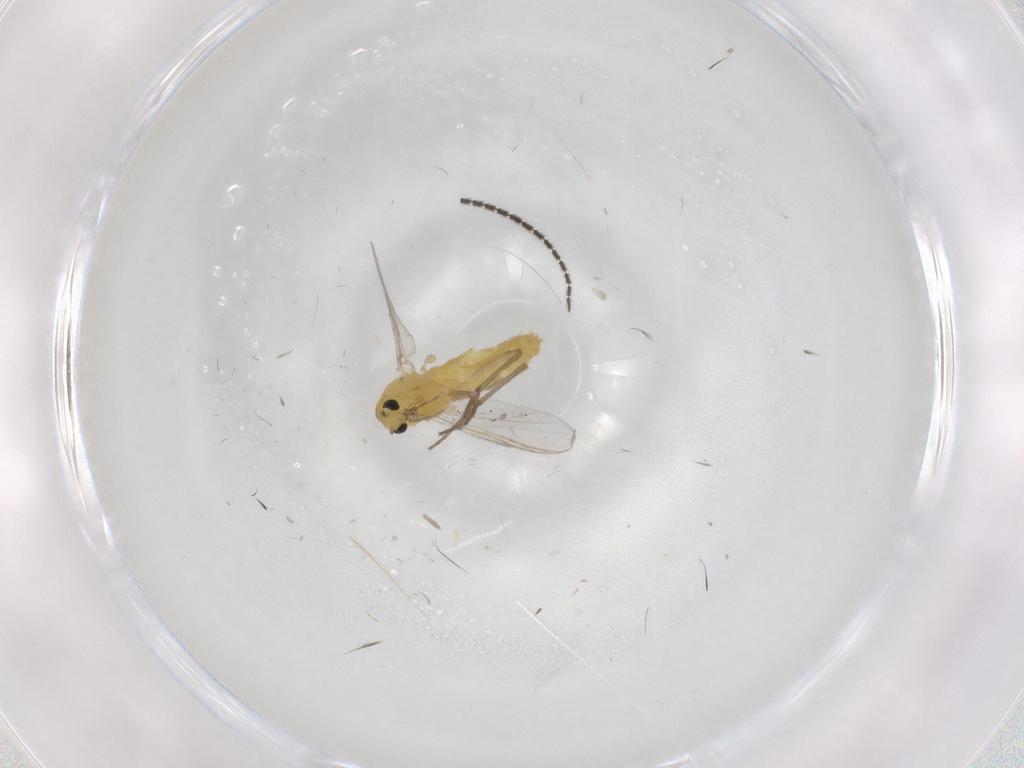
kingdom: Animalia
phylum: Arthropoda
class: Insecta
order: Diptera
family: Chironomidae
